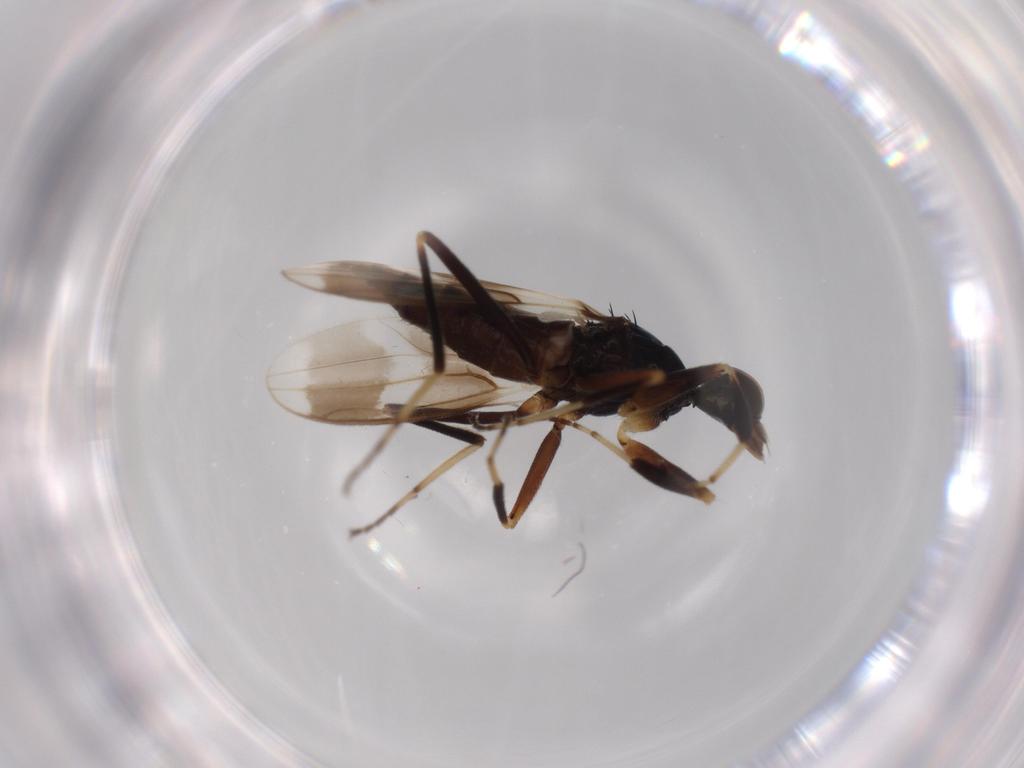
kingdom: Animalia
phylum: Arthropoda
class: Insecta
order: Diptera
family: Hybotidae
